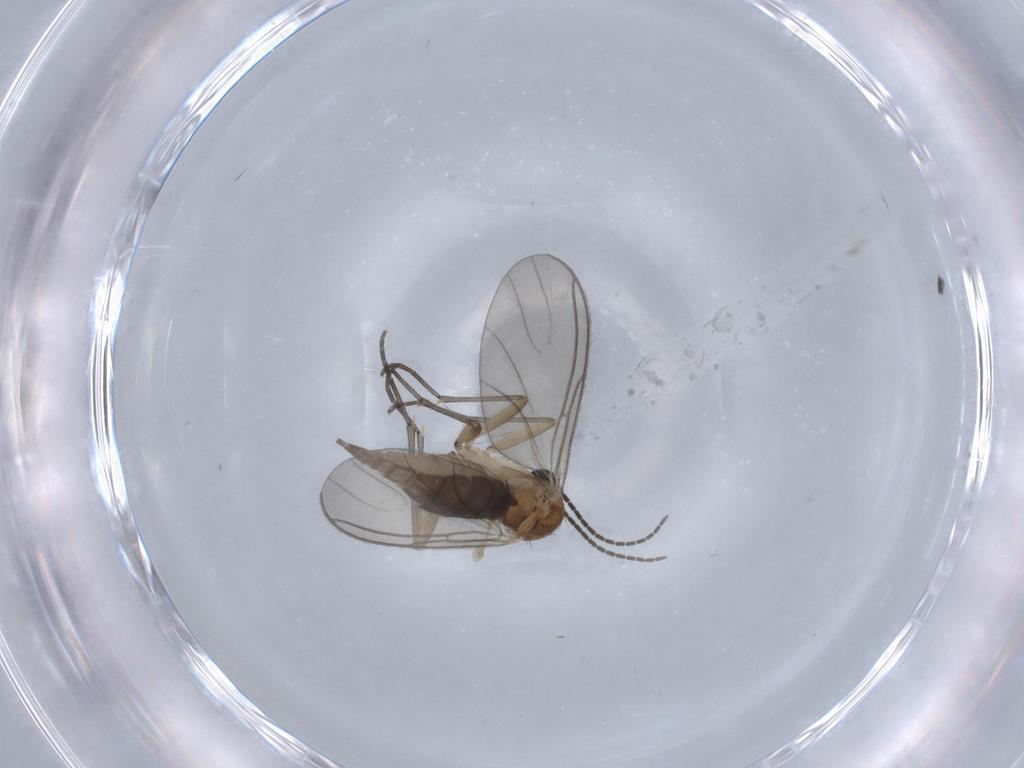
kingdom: Animalia
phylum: Arthropoda
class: Insecta
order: Diptera
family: Sciaridae
